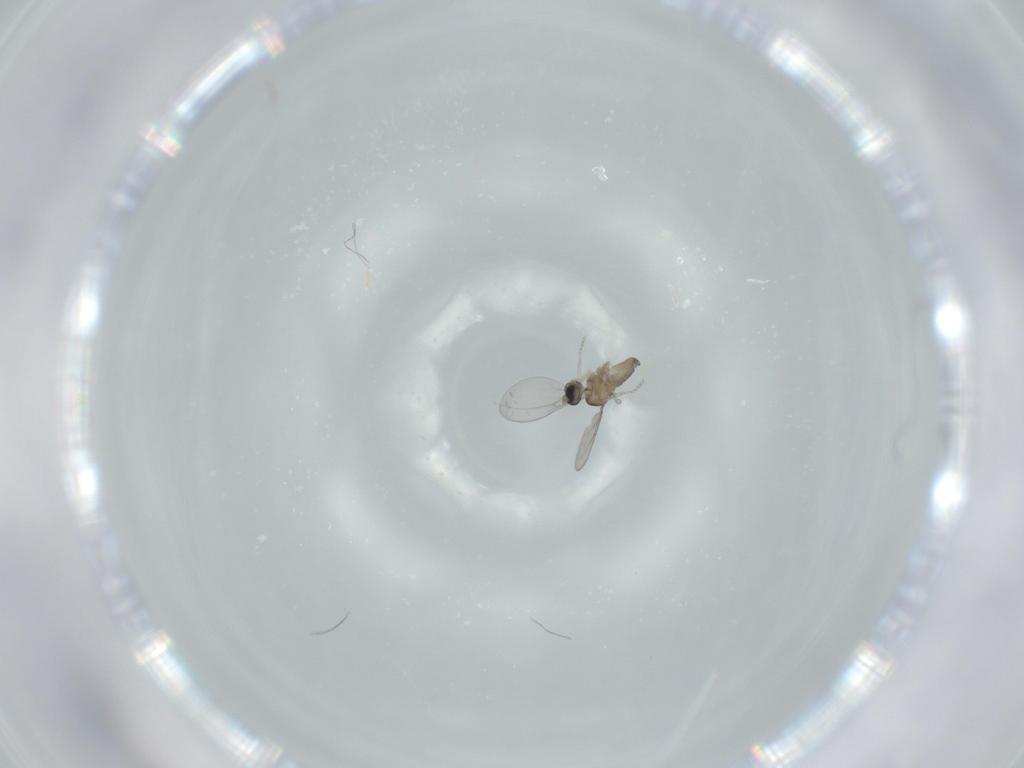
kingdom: Animalia
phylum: Arthropoda
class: Insecta
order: Diptera
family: Cecidomyiidae
